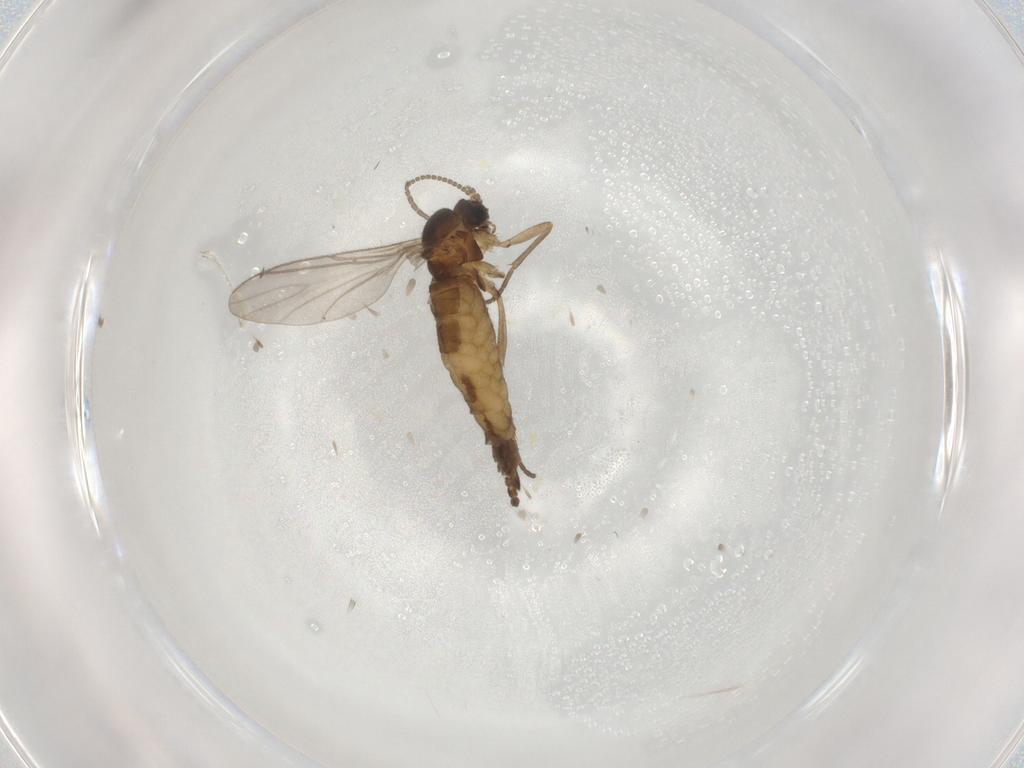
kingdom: Animalia
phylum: Arthropoda
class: Insecta
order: Diptera
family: Sciaridae
